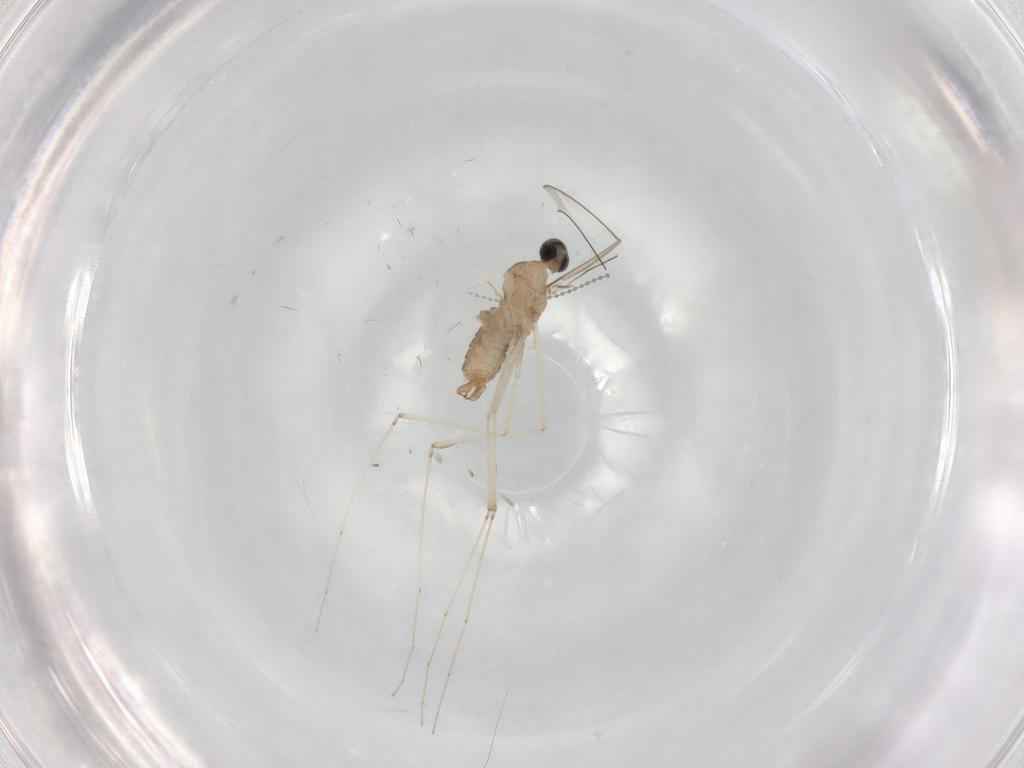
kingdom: Animalia
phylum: Arthropoda
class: Insecta
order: Diptera
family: Cecidomyiidae
